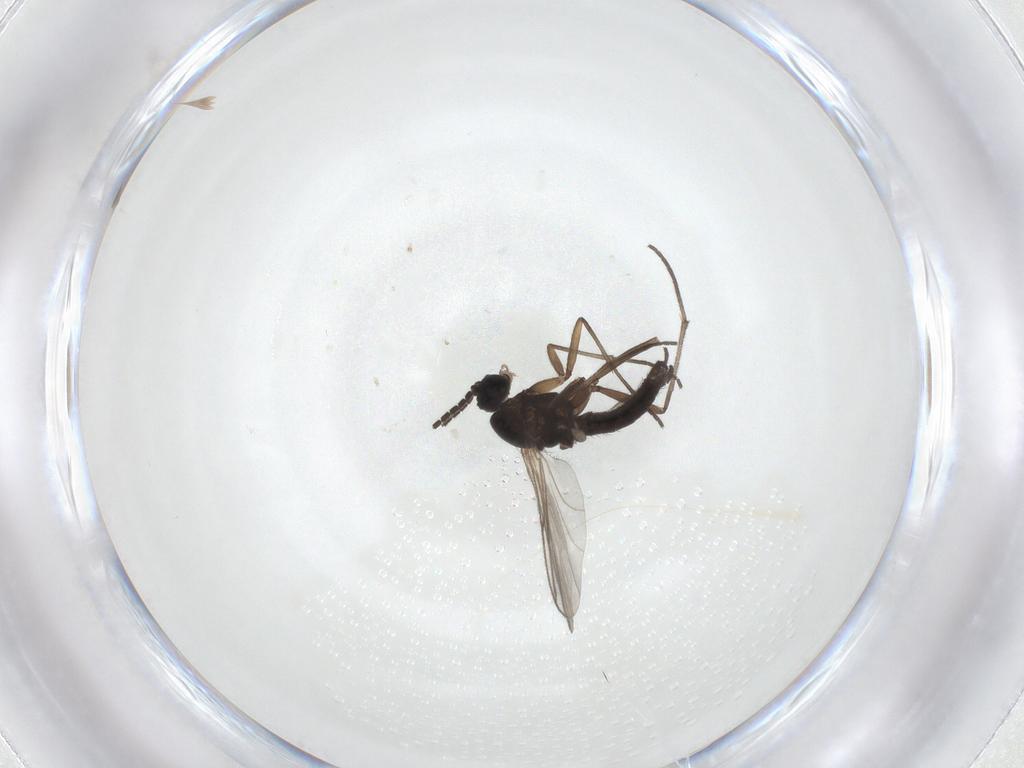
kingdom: Animalia
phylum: Arthropoda
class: Insecta
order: Diptera
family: Sciaridae
